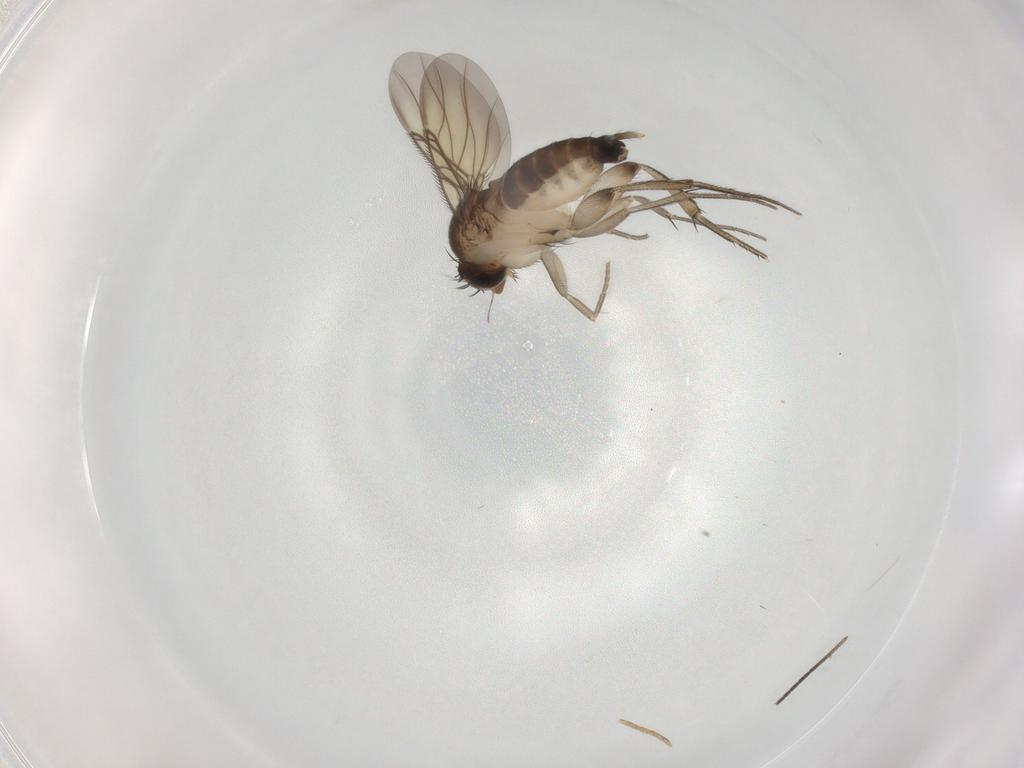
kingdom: Animalia
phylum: Arthropoda
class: Insecta
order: Diptera
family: Phoridae
